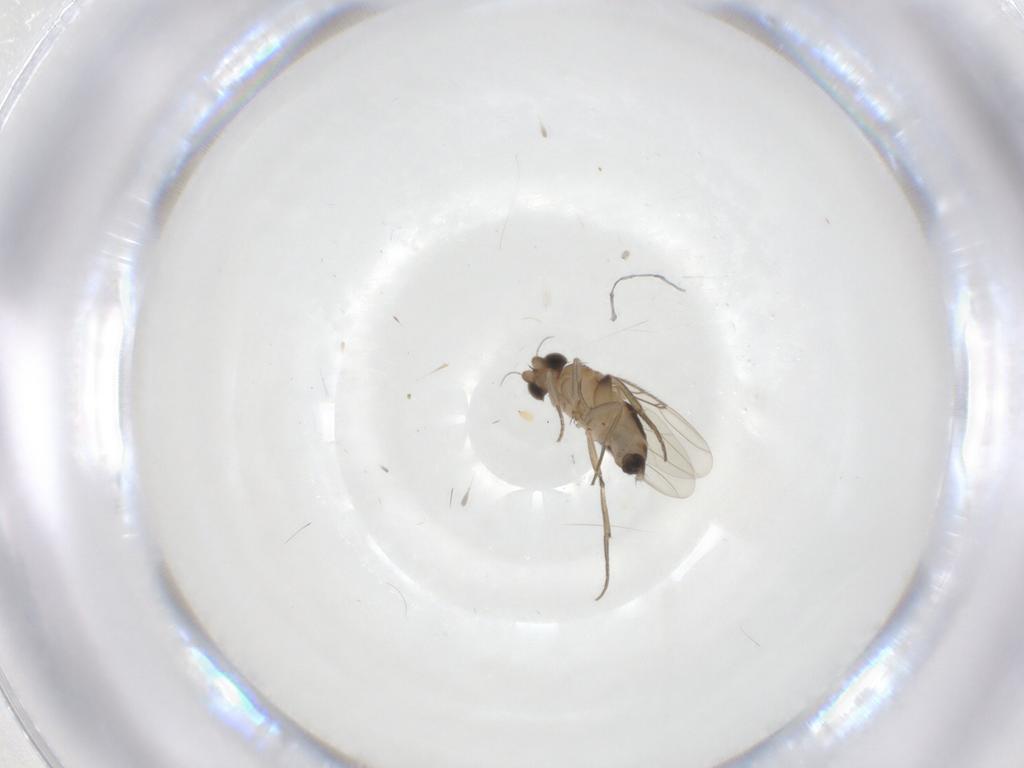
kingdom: Animalia
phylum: Arthropoda
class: Insecta
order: Diptera
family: Phoridae
